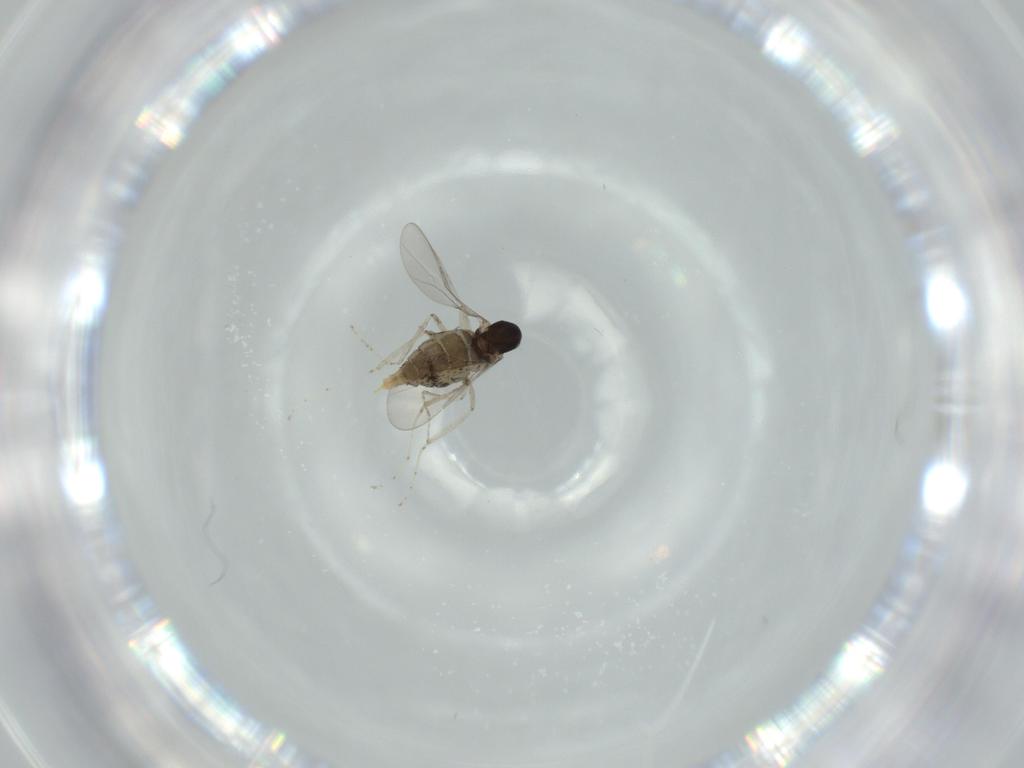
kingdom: Animalia
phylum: Arthropoda
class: Insecta
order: Diptera
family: Cecidomyiidae
